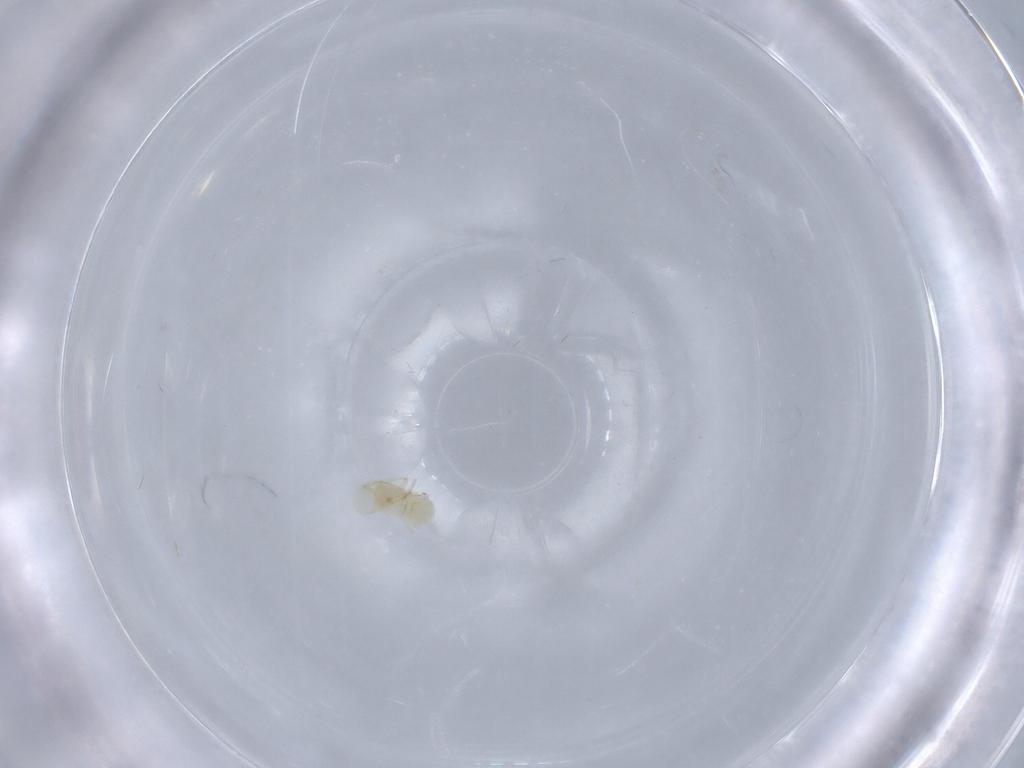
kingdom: Animalia
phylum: Arthropoda
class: Insecta
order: Hymenoptera
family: Aphelinidae
